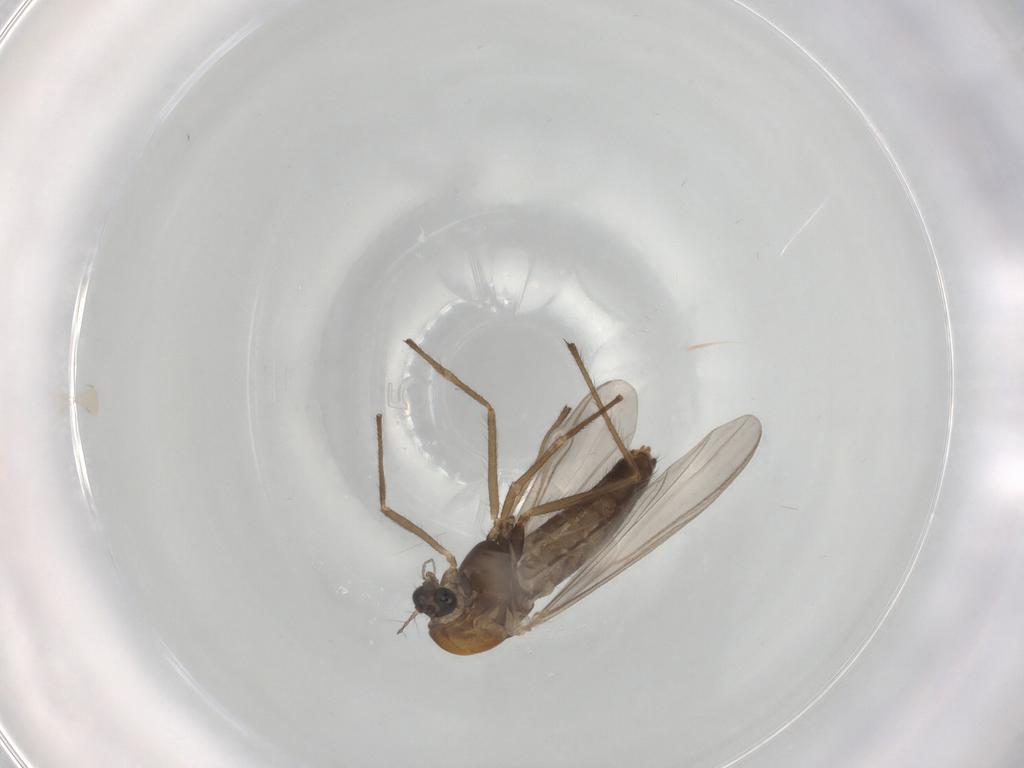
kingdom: Animalia
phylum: Arthropoda
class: Insecta
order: Diptera
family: Chironomidae
